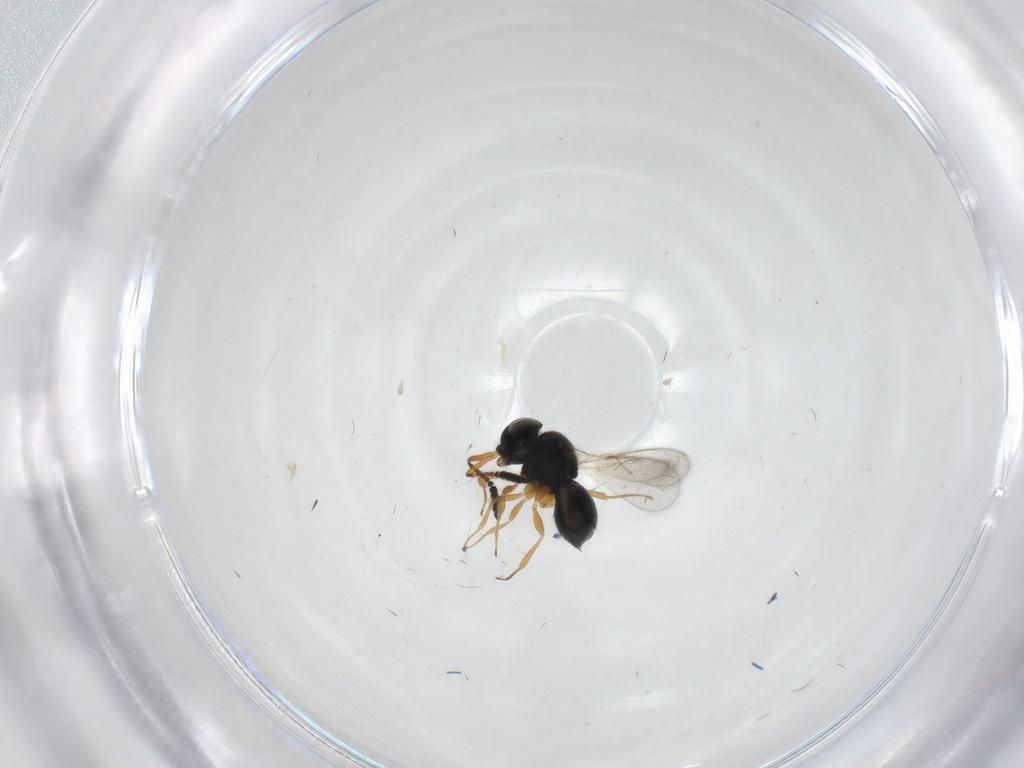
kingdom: Animalia
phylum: Arthropoda
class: Insecta
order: Hymenoptera
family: Scelionidae
